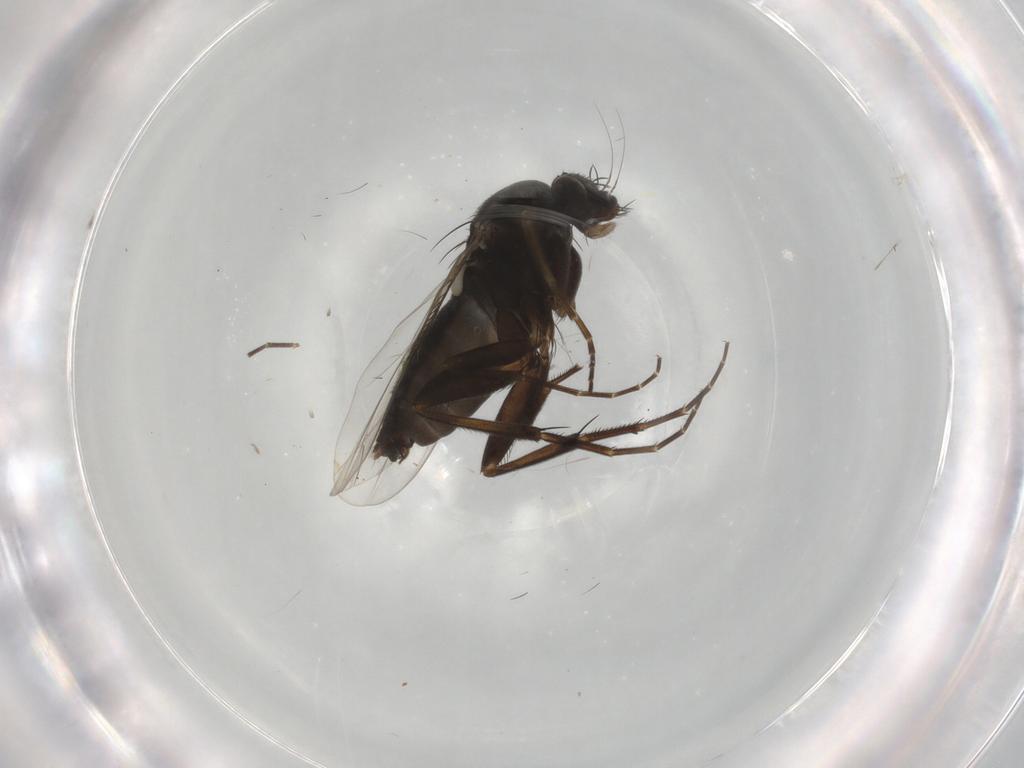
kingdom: Animalia
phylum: Arthropoda
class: Insecta
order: Diptera
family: Phoridae
